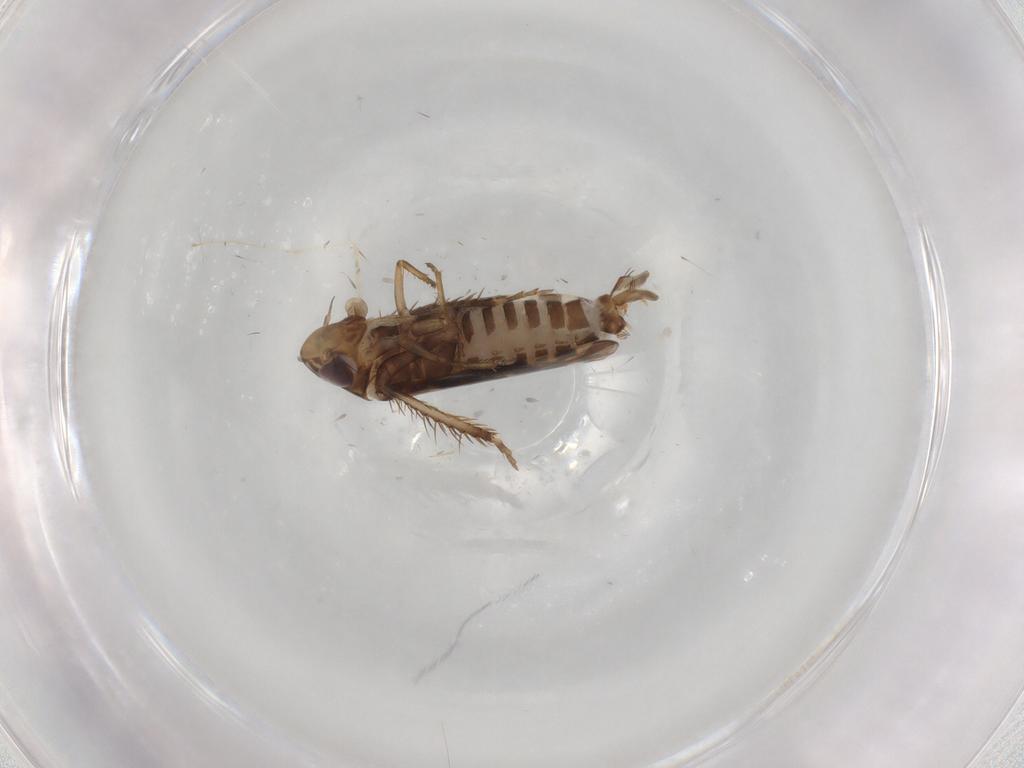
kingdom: Animalia
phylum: Arthropoda
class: Insecta
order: Hemiptera
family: Cicadellidae
